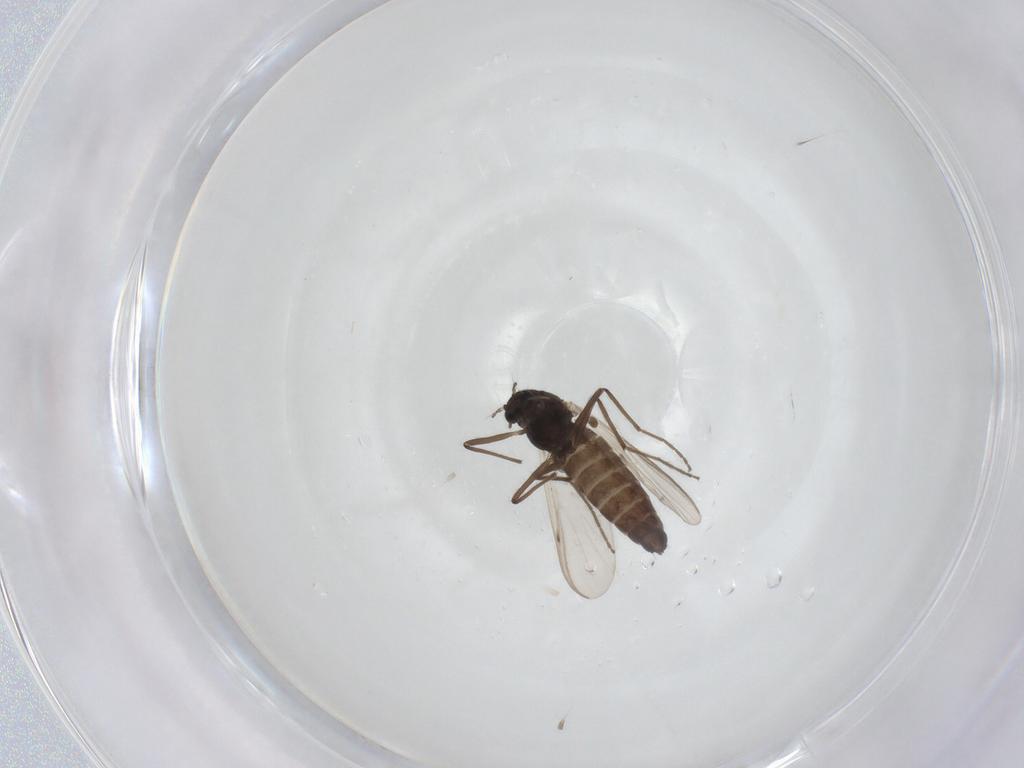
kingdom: Animalia
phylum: Arthropoda
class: Insecta
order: Diptera
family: Chironomidae
